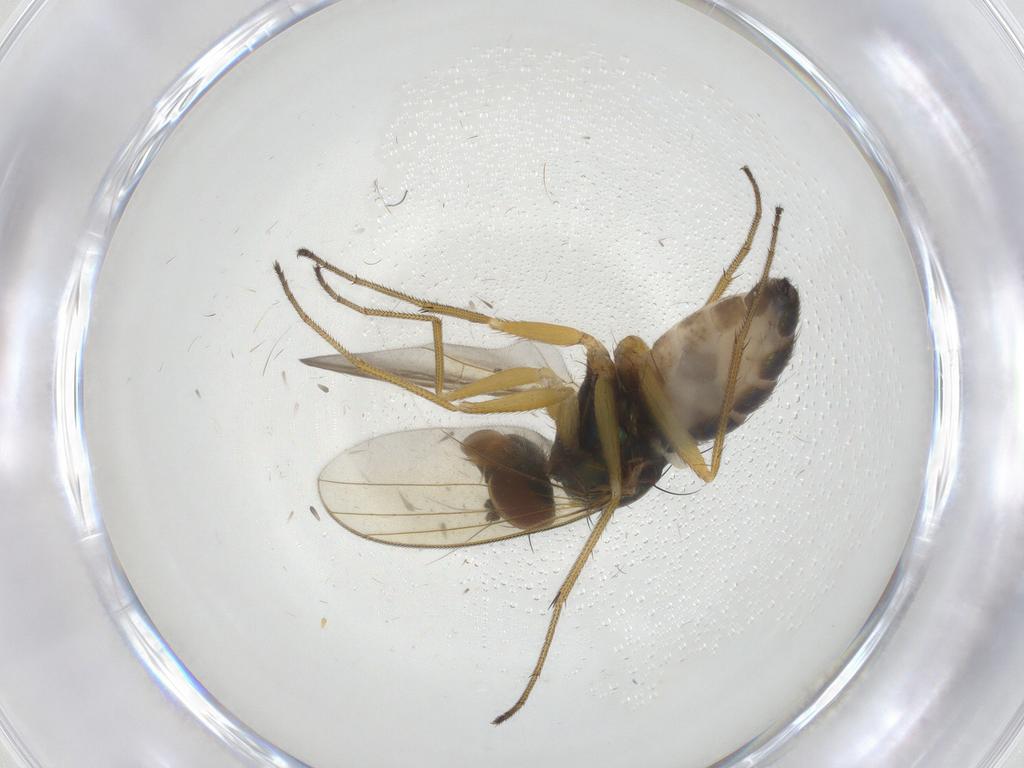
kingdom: Animalia
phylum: Arthropoda
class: Insecta
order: Diptera
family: Dolichopodidae
